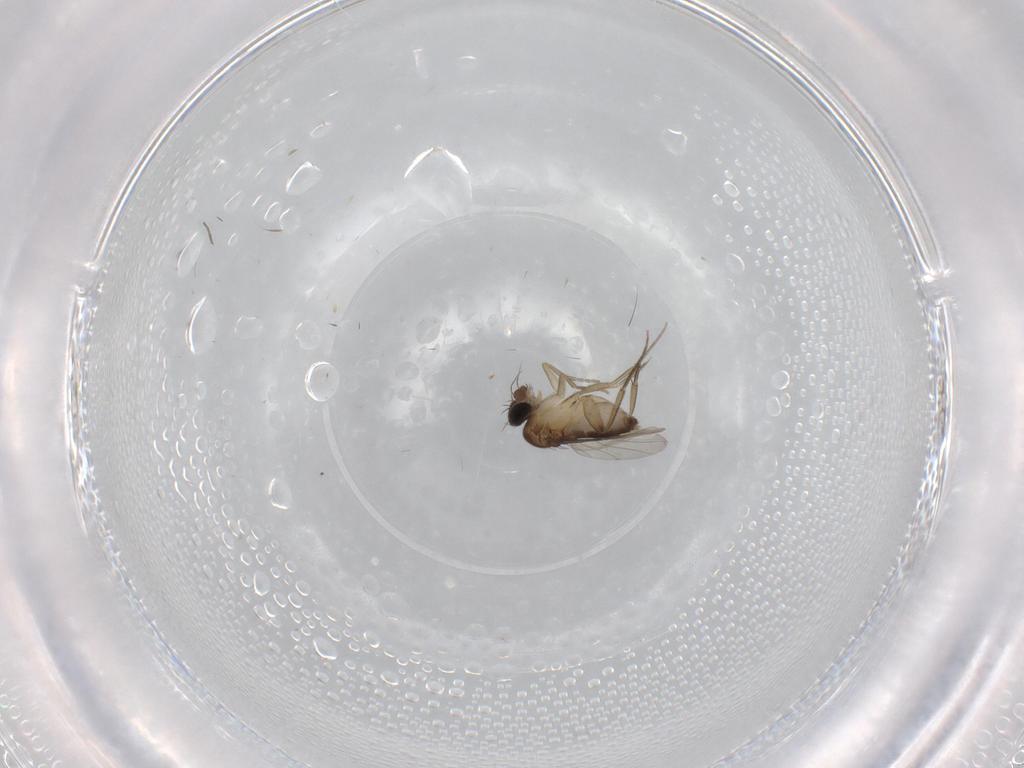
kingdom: Animalia
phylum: Arthropoda
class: Insecta
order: Diptera
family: Phoridae
